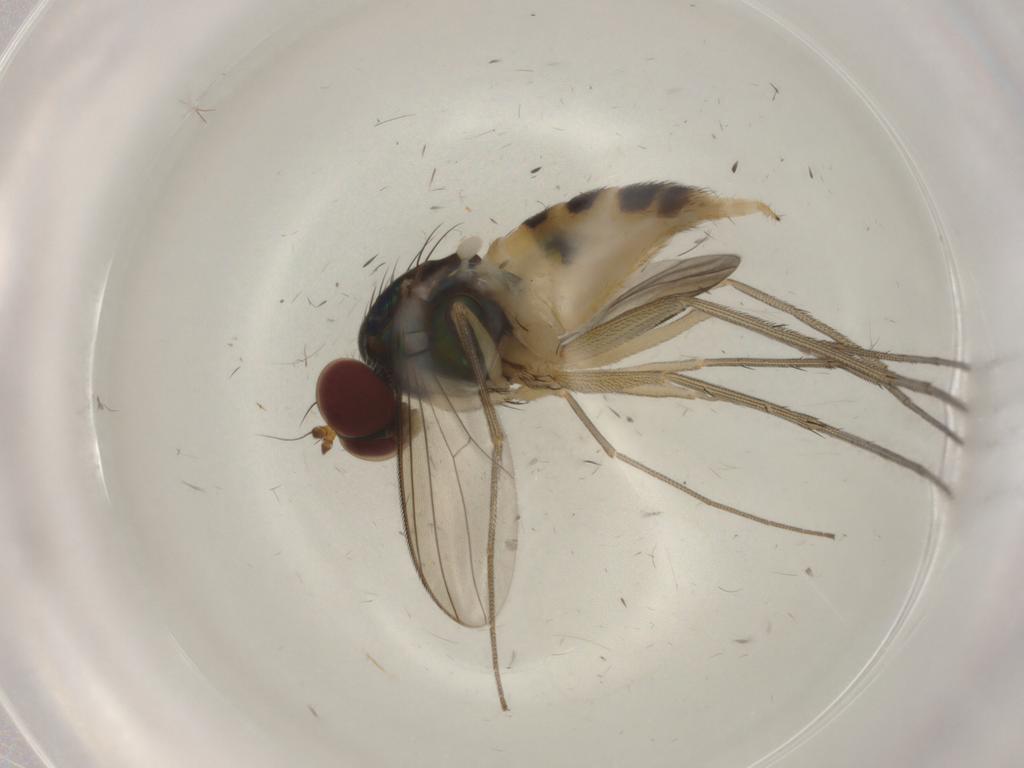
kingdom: Animalia
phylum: Arthropoda
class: Insecta
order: Diptera
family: Dolichopodidae
